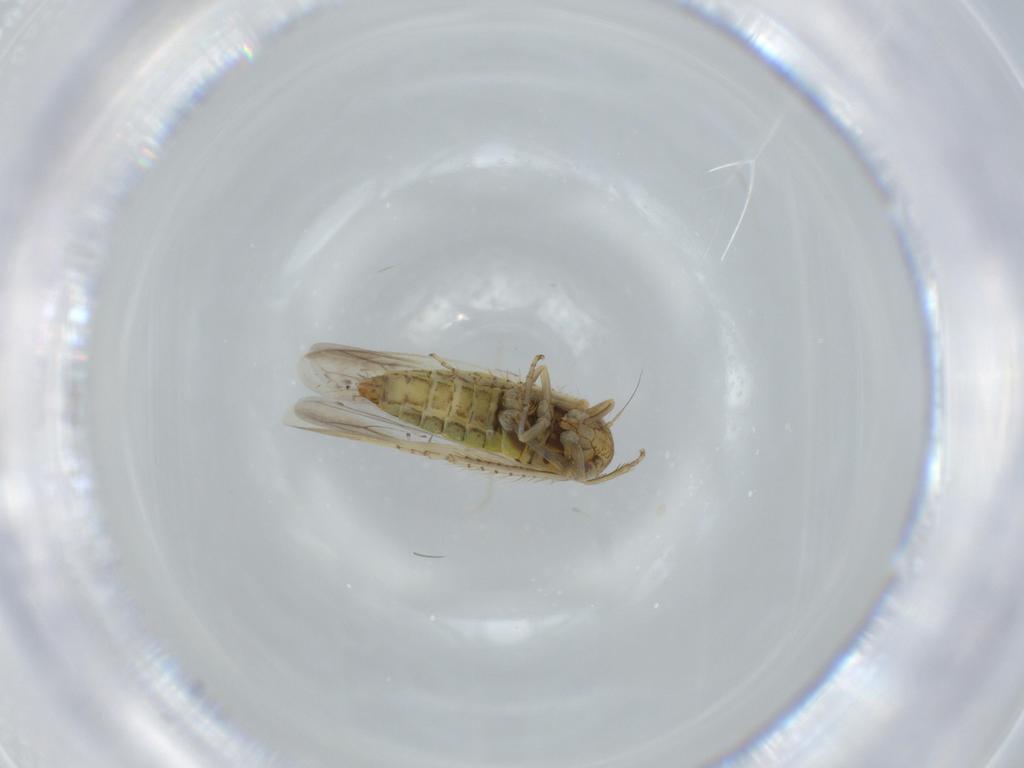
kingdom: Animalia
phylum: Arthropoda
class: Insecta
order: Hemiptera
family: Cicadellidae
